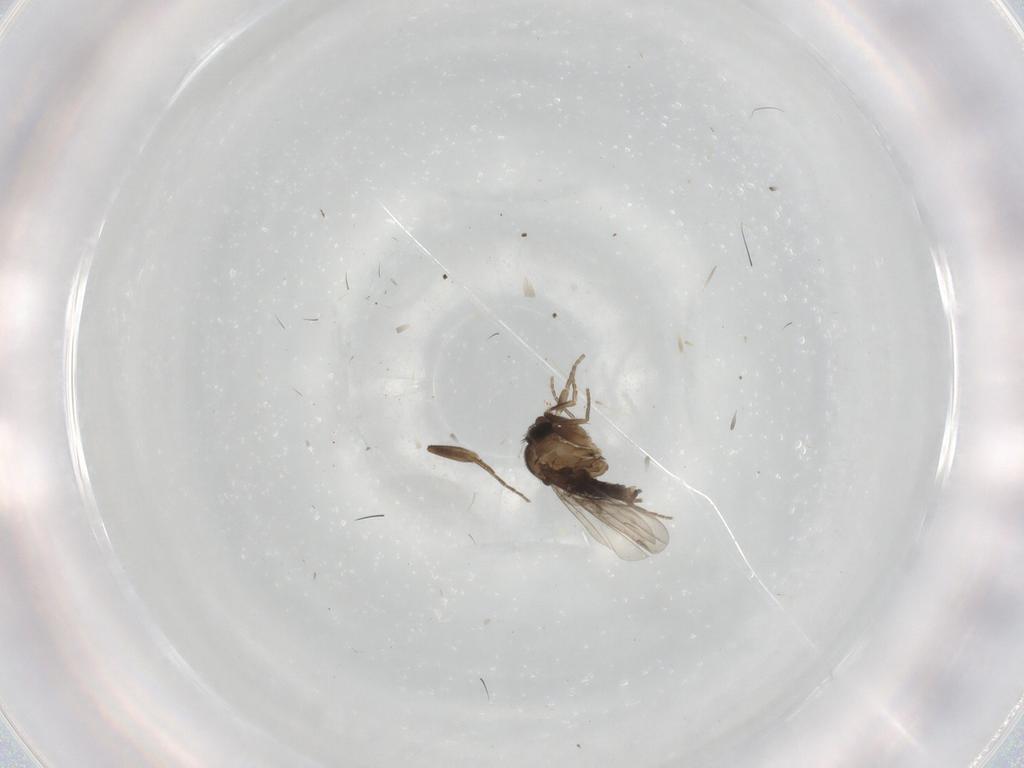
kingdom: Animalia
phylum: Arthropoda
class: Insecta
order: Diptera
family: Phoridae
